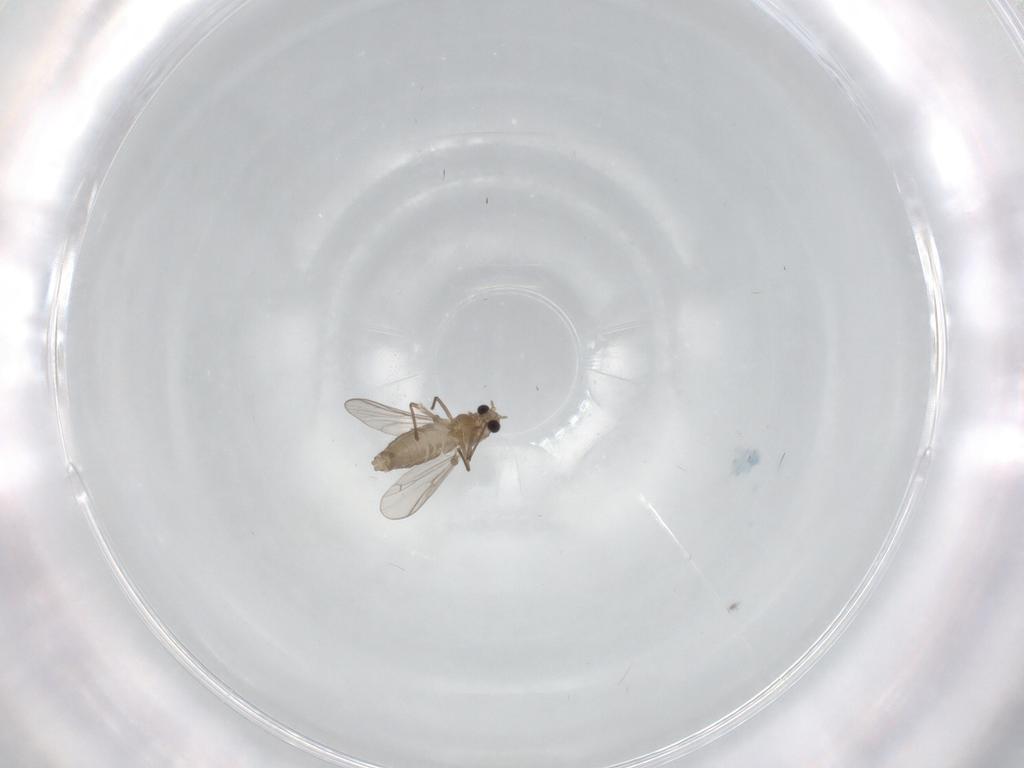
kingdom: Animalia
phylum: Arthropoda
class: Insecta
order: Diptera
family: Chironomidae
